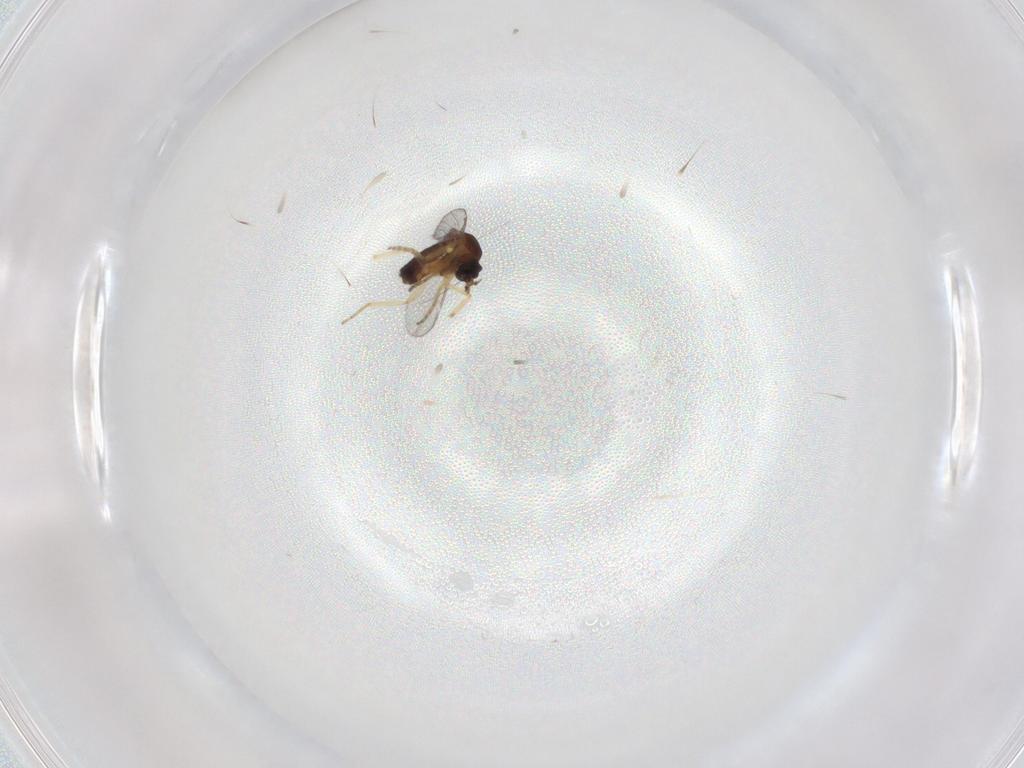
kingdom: Animalia
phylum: Arthropoda
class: Insecta
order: Diptera
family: Ceratopogonidae
